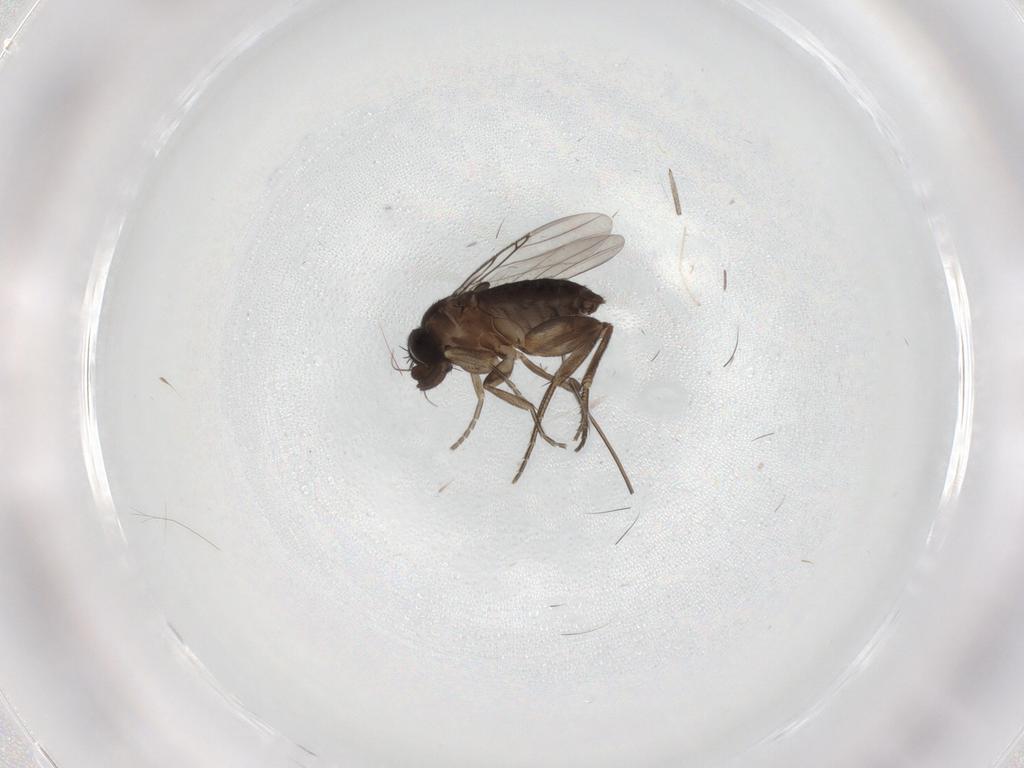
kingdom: Animalia
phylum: Arthropoda
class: Insecta
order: Diptera
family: Phoridae
